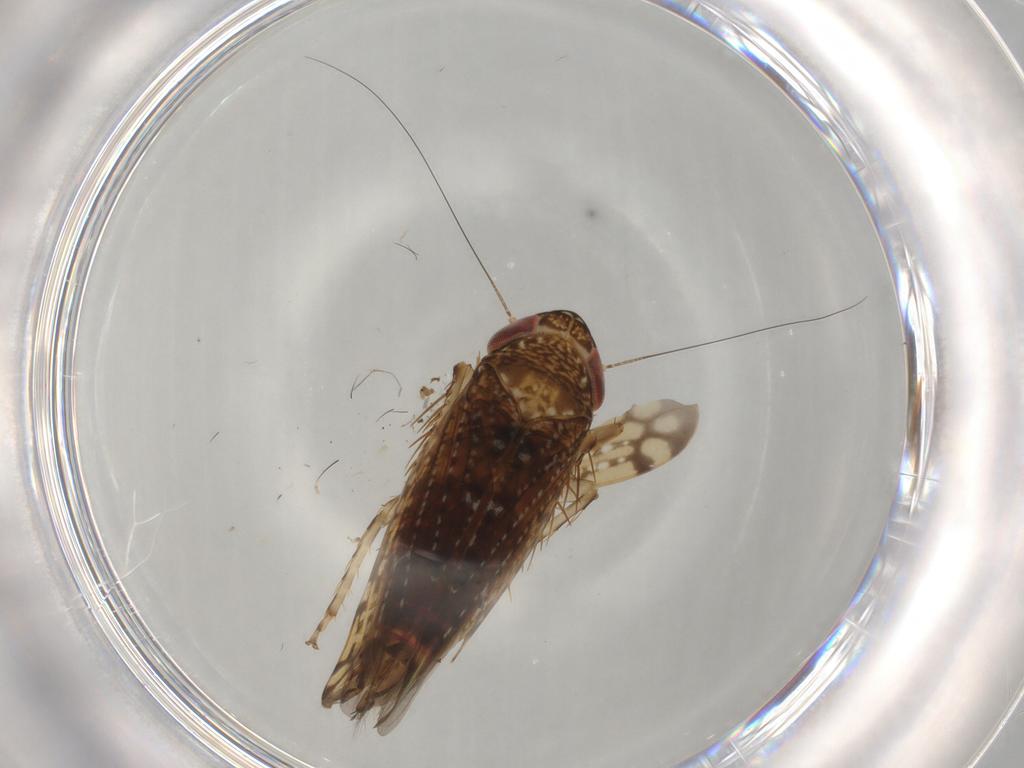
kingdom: Animalia
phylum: Arthropoda
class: Insecta
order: Hemiptera
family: Cicadellidae
